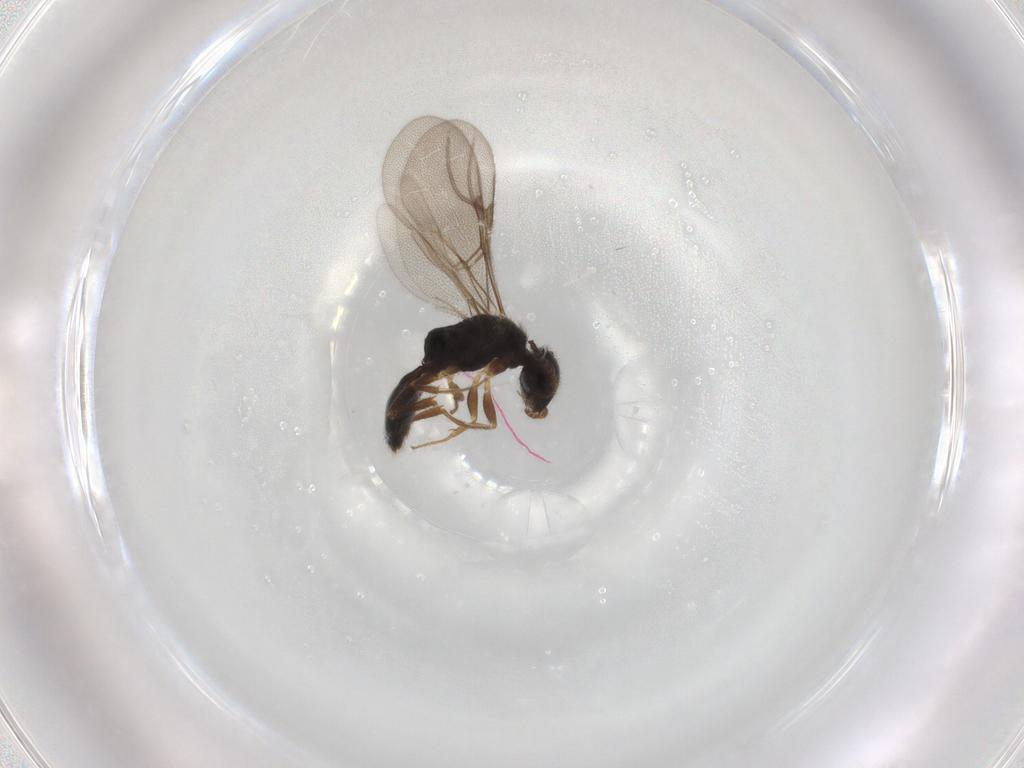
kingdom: Animalia
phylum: Arthropoda
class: Insecta
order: Hymenoptera
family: Bethylidae
